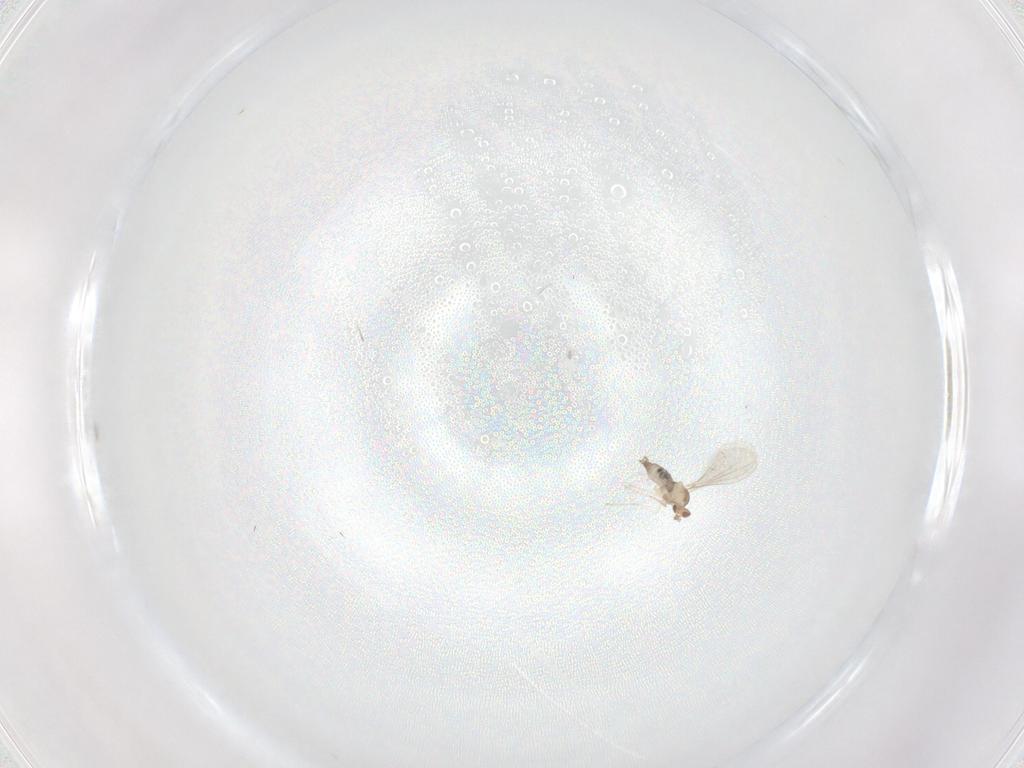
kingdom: Animalia
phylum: Arthropoda
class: Insecta
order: Diptera
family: Cecidomyiidae
